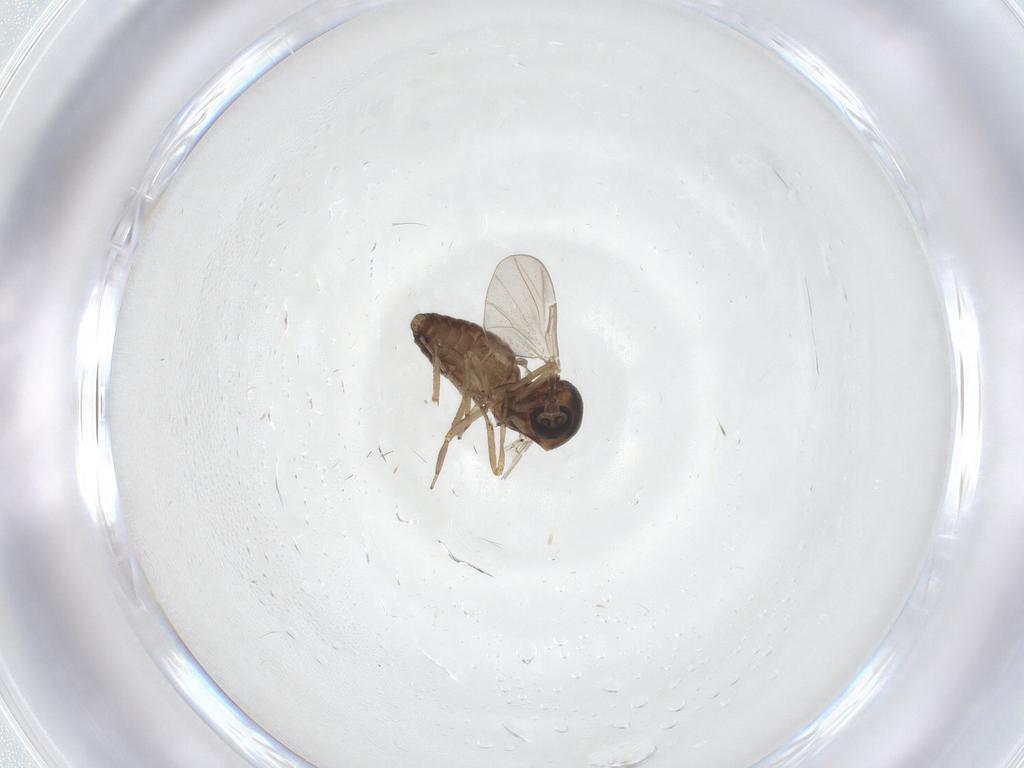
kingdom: Animalia
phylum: Arthropoda
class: Insecta
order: Diptera
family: Ceratopogonidae
